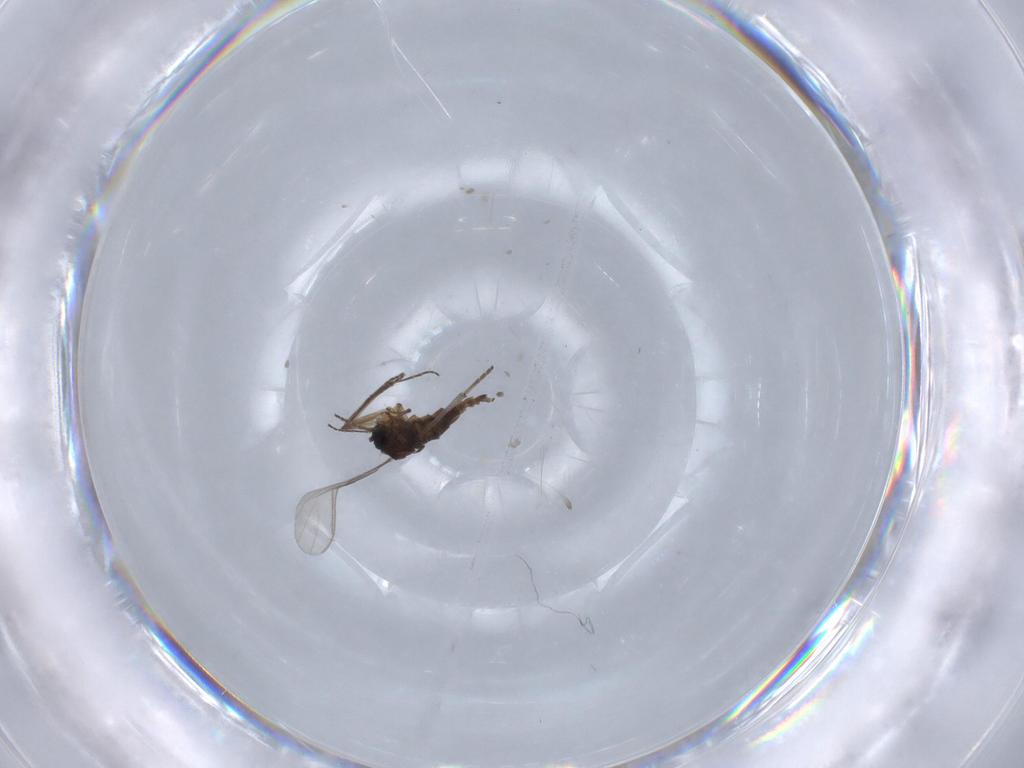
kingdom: Animalia
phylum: Arthropoda
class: Insecta
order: Diptera
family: Sciaridae
